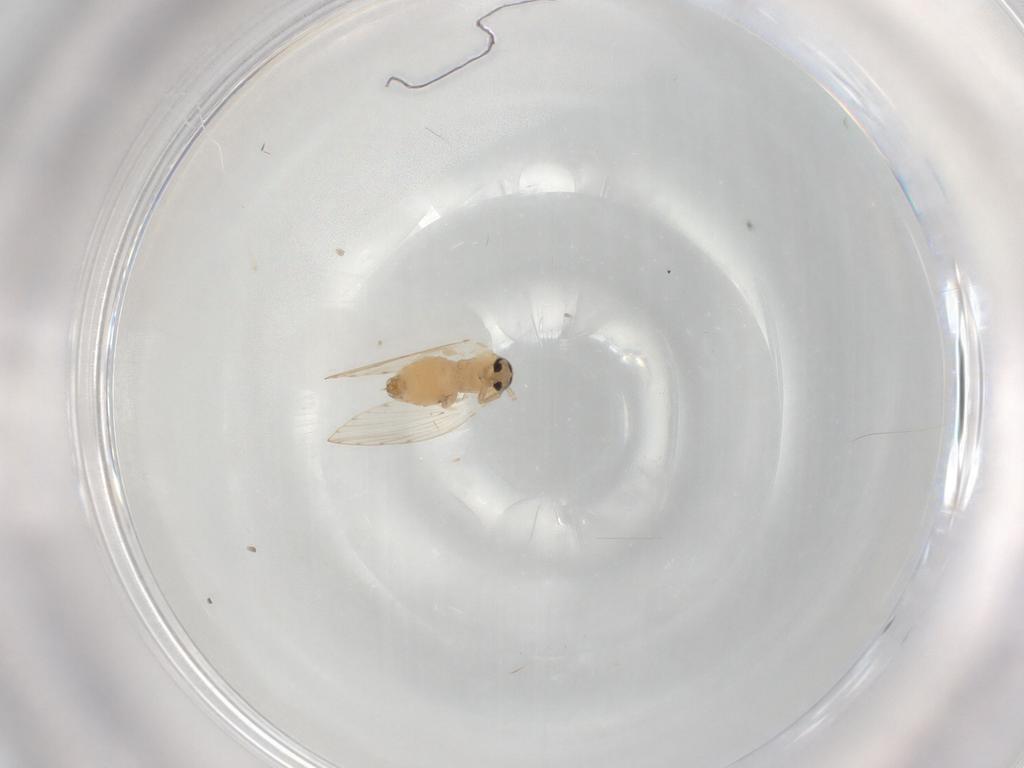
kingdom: Animalia
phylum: Arthropoda
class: Insecta
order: Diptera
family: Psychodidae
